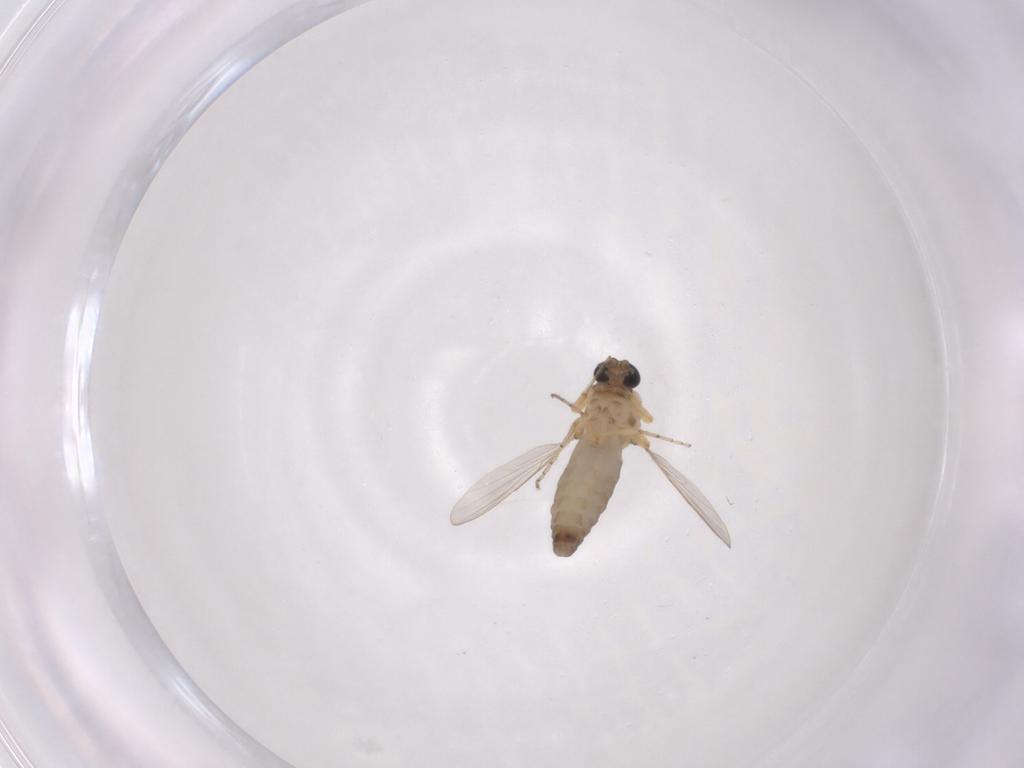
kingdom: Animalia
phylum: Arthropoda
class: Insecta
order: Diptera
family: Ceratopogonidae
